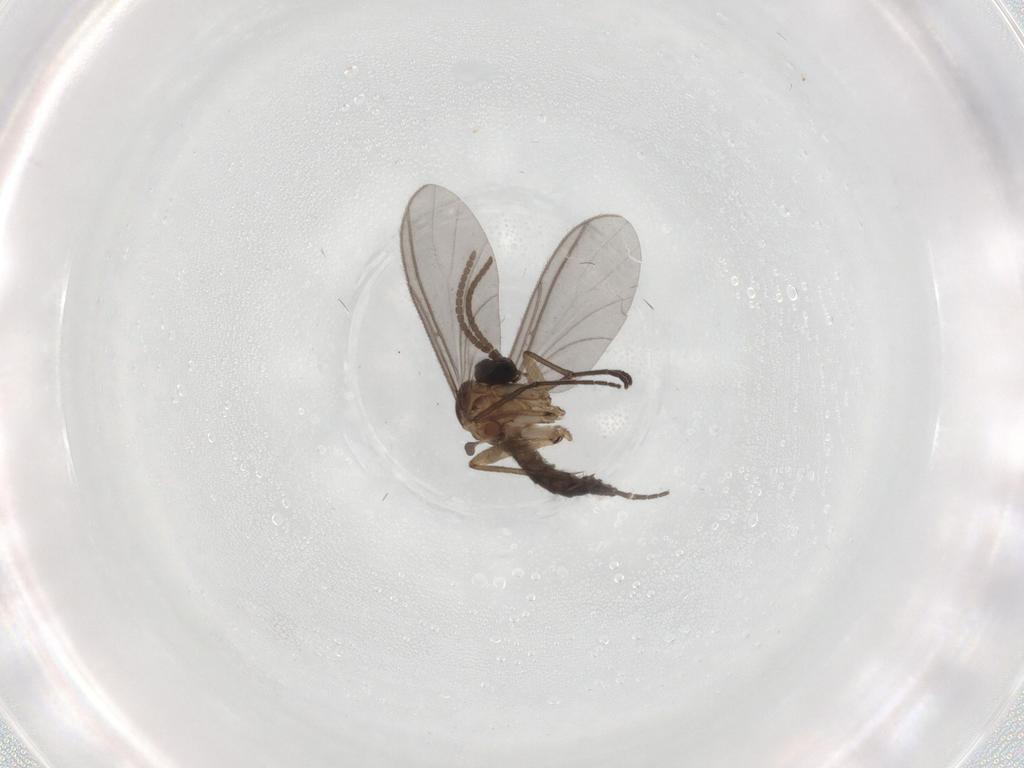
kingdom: Animalia
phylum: Arthropoda
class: Insecta
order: Diptera
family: Sciaridae
